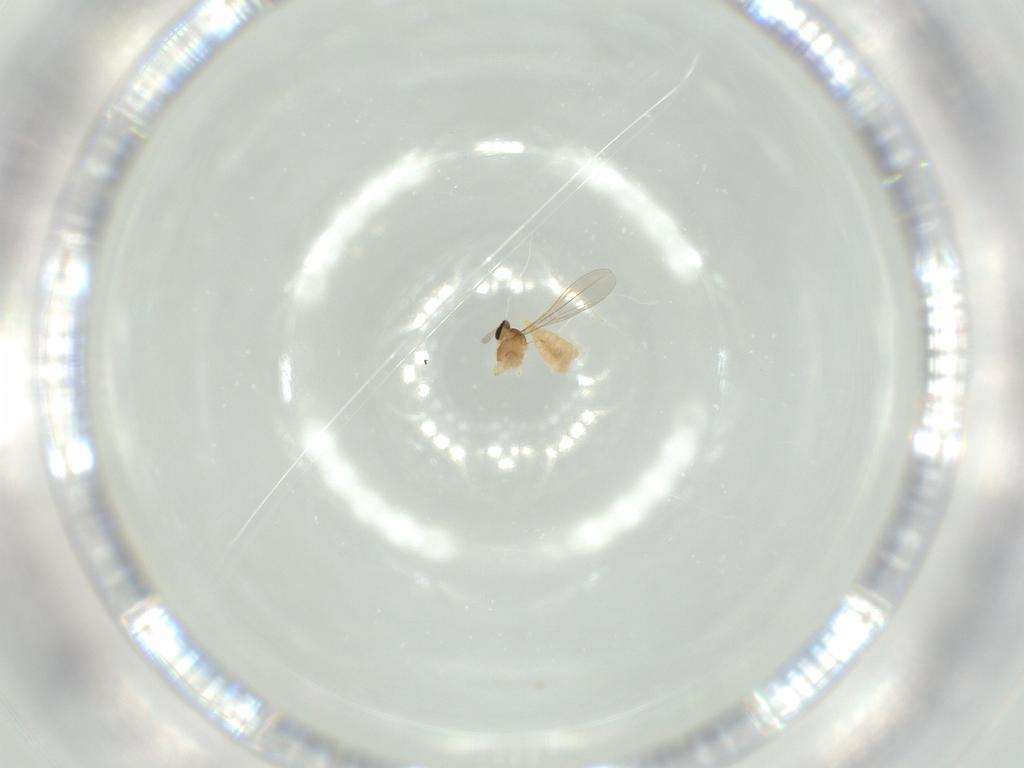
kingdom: Animalia
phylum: Arthropoda
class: Insecta
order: Diptera
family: Cecidomyiidae
